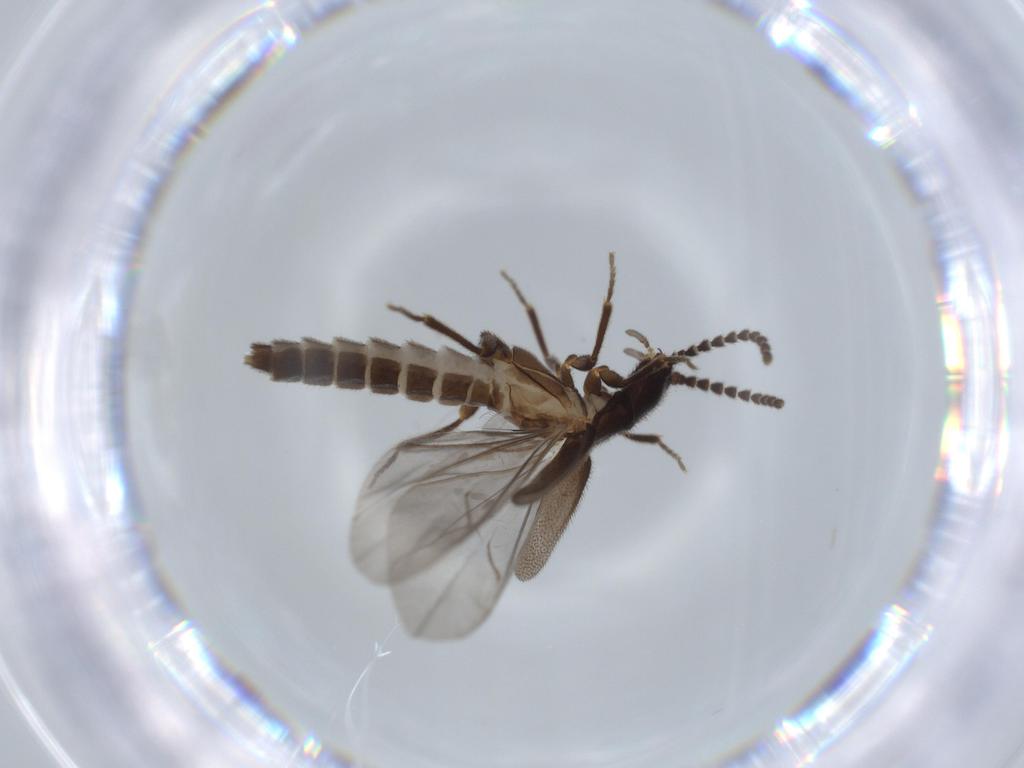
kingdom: Animalia
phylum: Arthropoda
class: Insecta
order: Coleoptera
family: Omethidae
